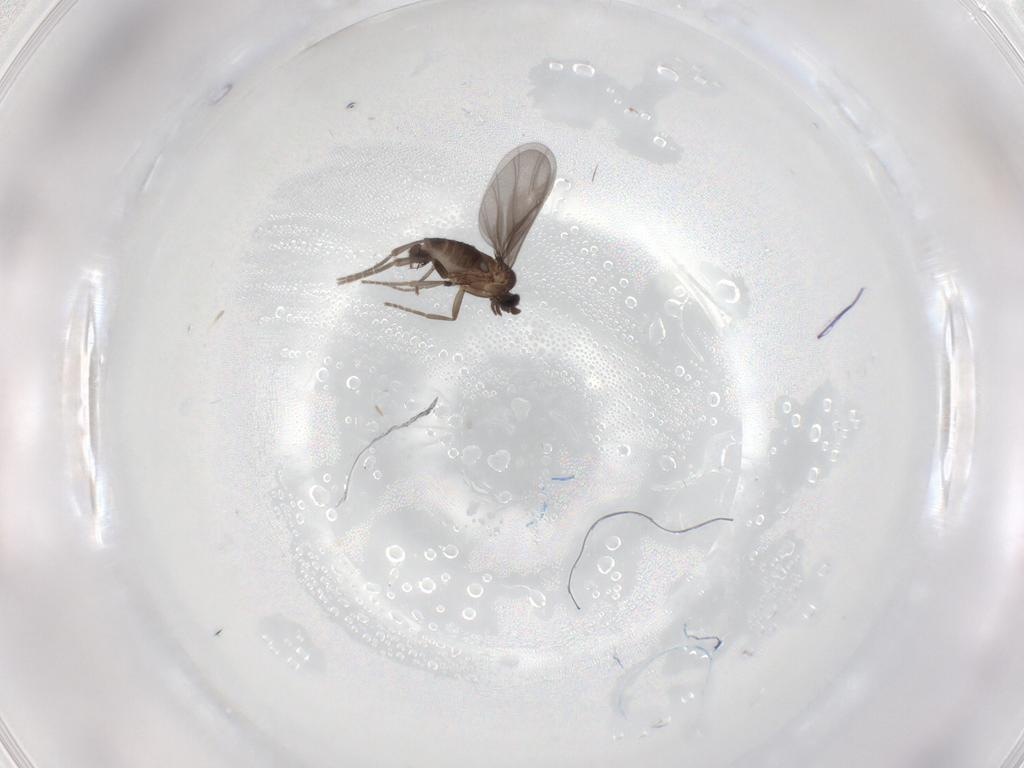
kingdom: Animalia
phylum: Arthropoda
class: Insecta
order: Diptera
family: Phoridae
